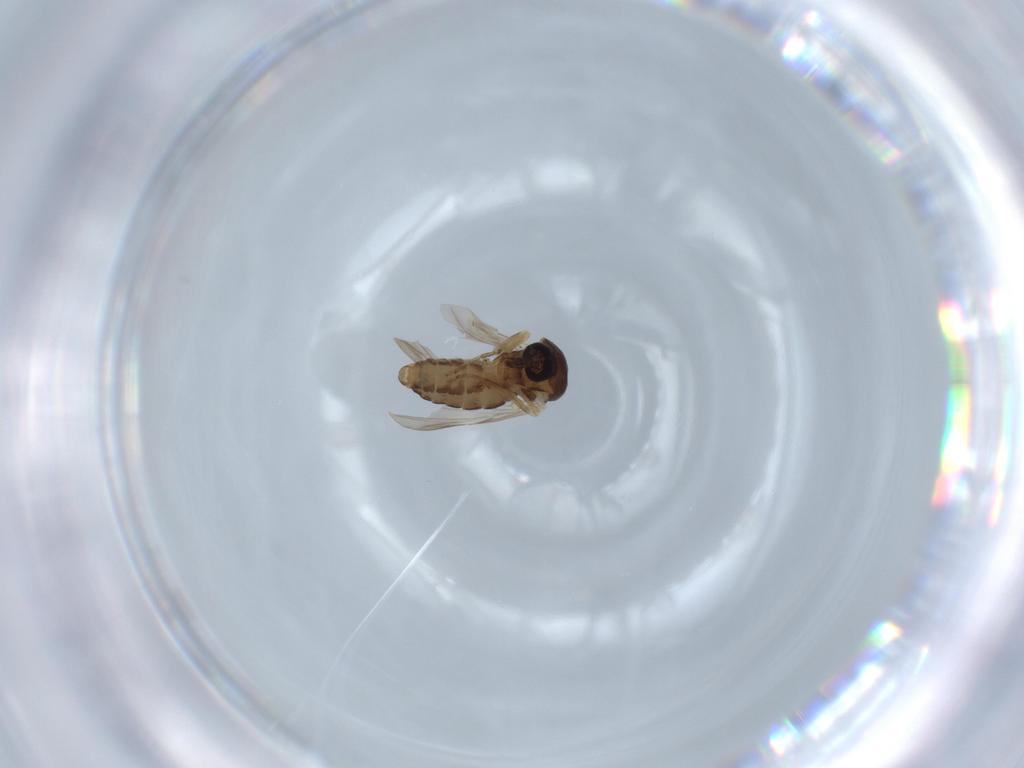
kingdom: Animalia
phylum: Arthropoda
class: Insecta
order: Diptera
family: Ceratopogonidae
